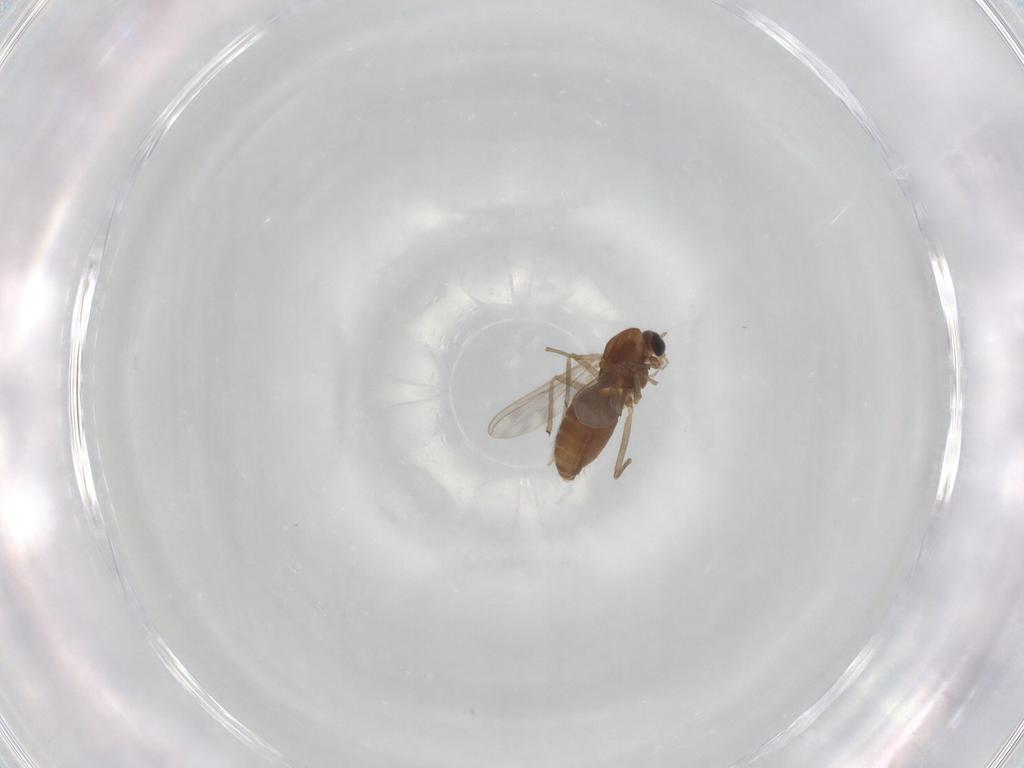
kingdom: Animalia
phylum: Arthropoda
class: Insecta
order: Diptera
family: Chironomidae
